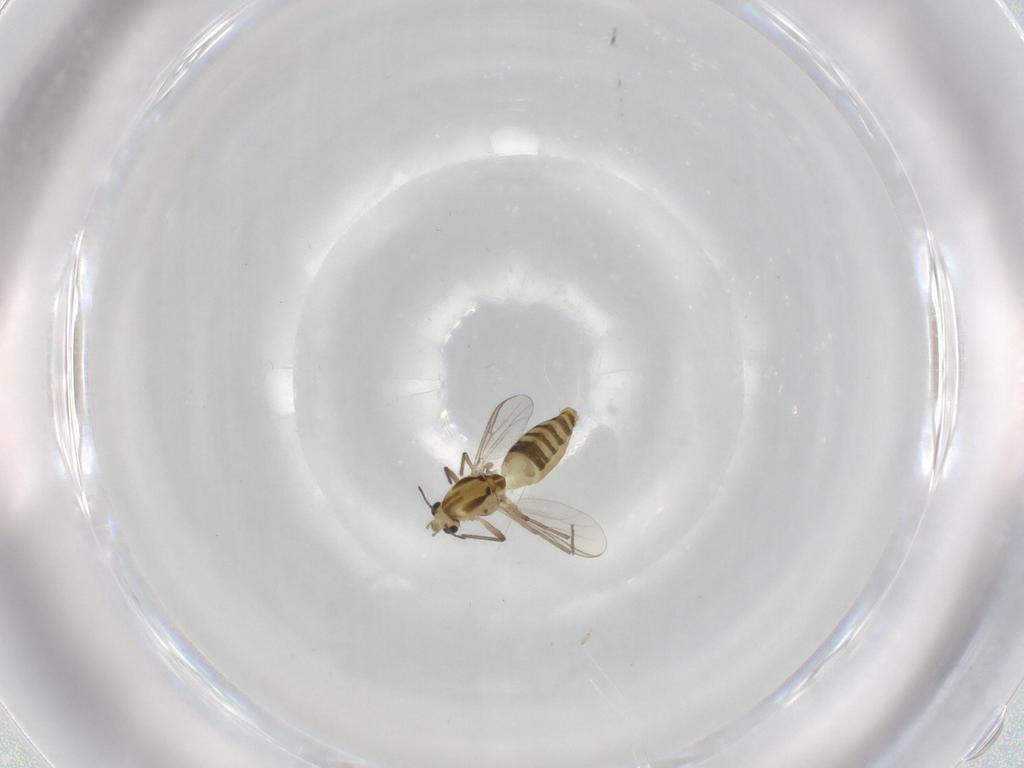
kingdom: Animalia
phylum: Arthropoda
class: Insecta
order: Diptera
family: Chironomidae
